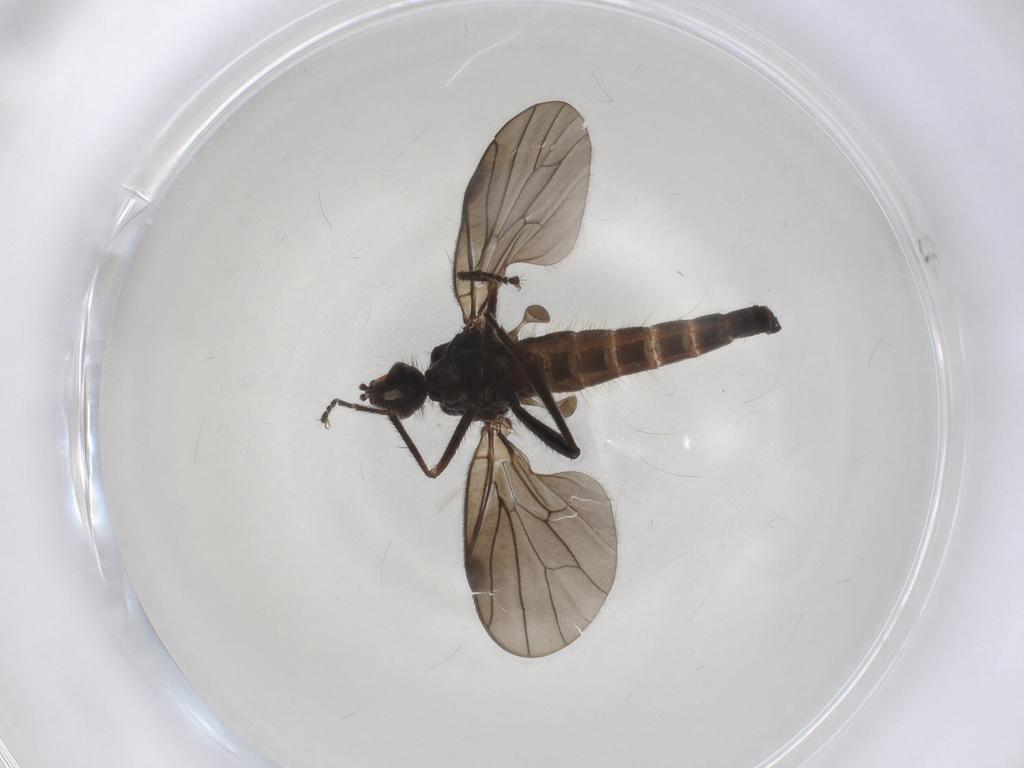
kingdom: Animalia
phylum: Arthropoda
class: Insecta
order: Diptera
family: Hybotidae
